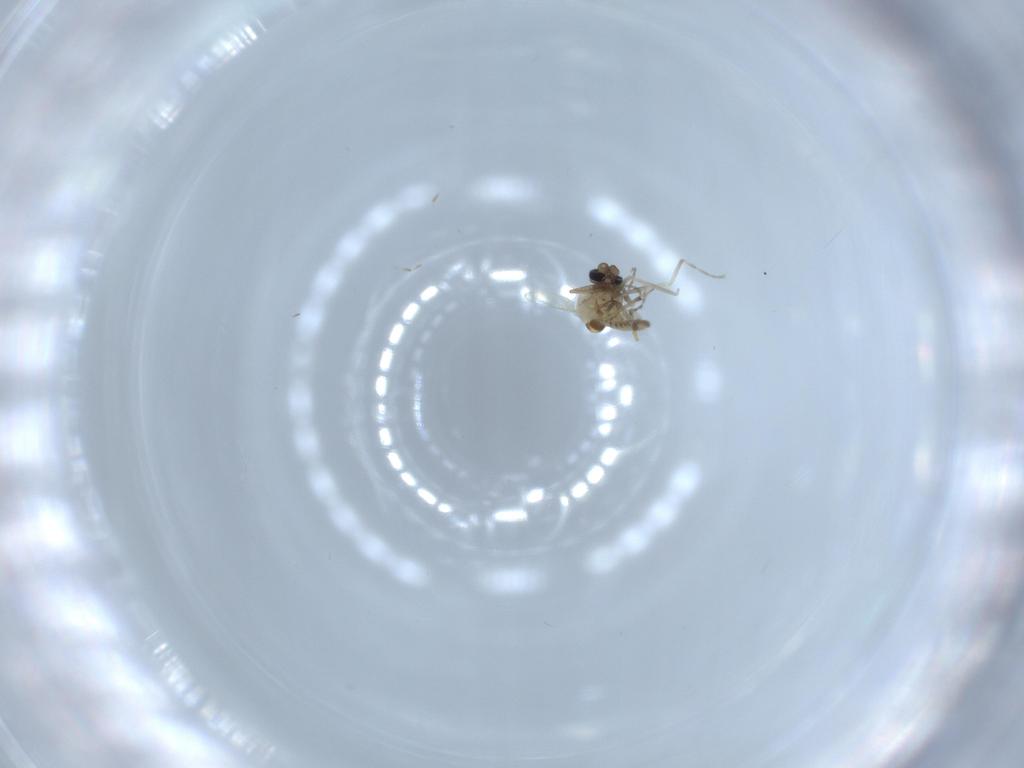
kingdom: Animalia
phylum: Arthropoda
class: Insecta
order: Diptera
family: Ceratopogonidae
